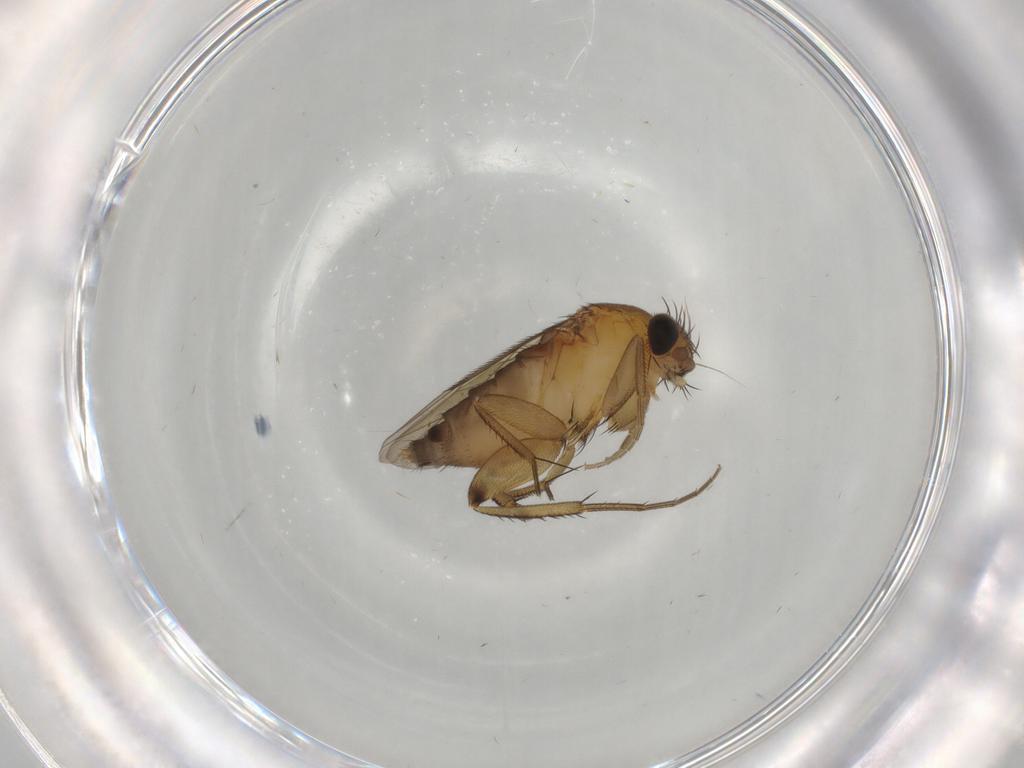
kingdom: Animalia
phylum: Arthropoda
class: Insecta
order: Diptera
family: Phoridae
